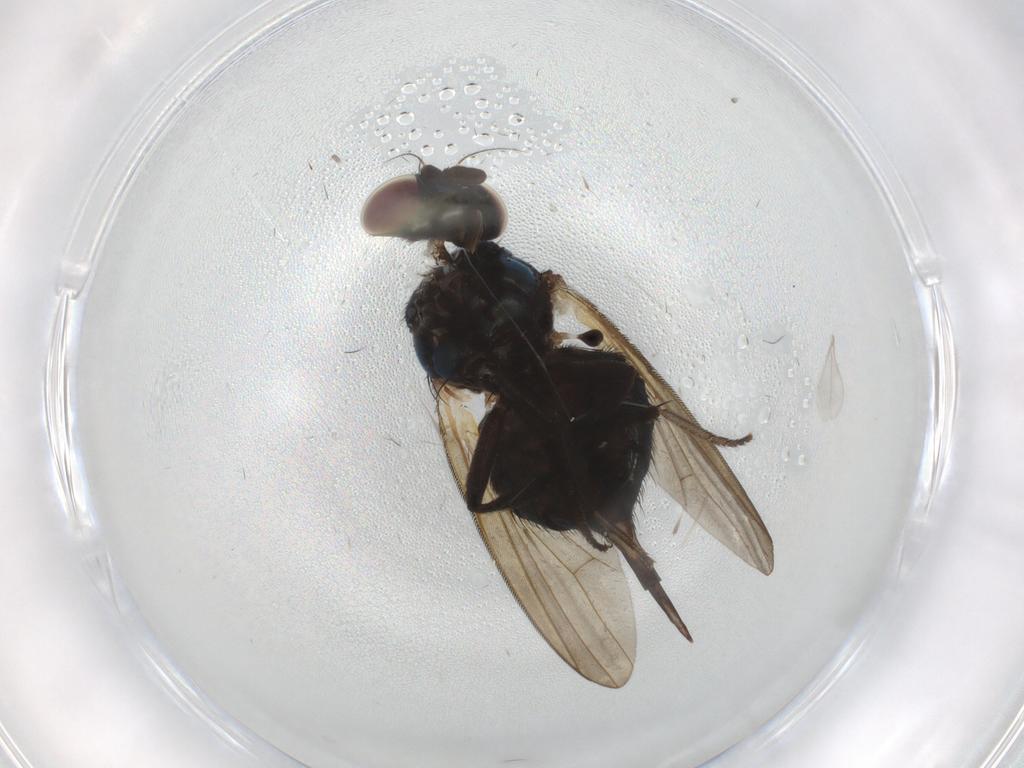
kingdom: Animalia
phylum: Arthropoda
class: Insecta
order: Diptera
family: Lonchaeidae
